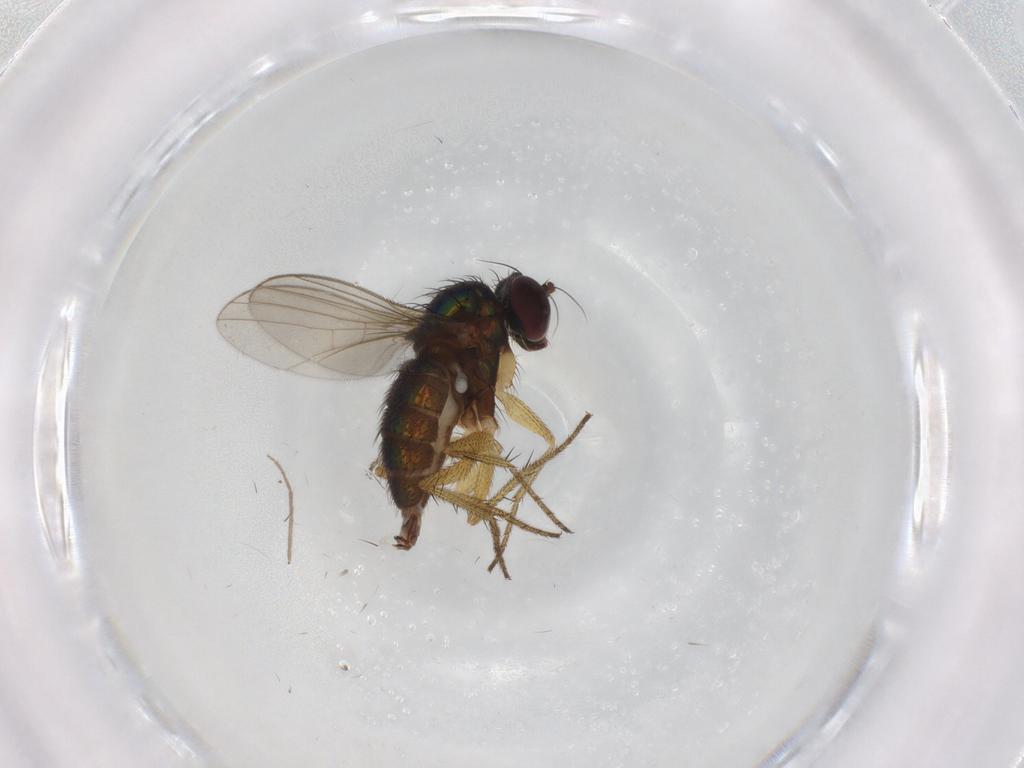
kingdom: Animalia
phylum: Arthropoda
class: Insecta
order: Diptera
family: Chironomidae
